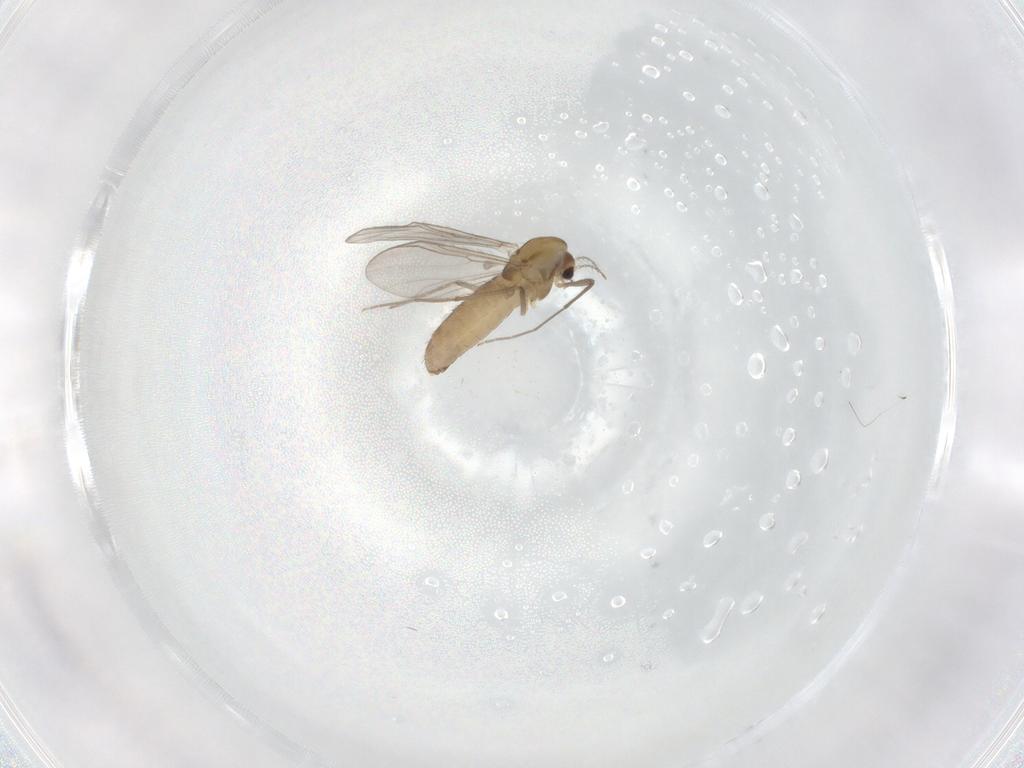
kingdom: Animalia
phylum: Arthropoda
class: Insecta
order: Diptera
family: Chironomidae
